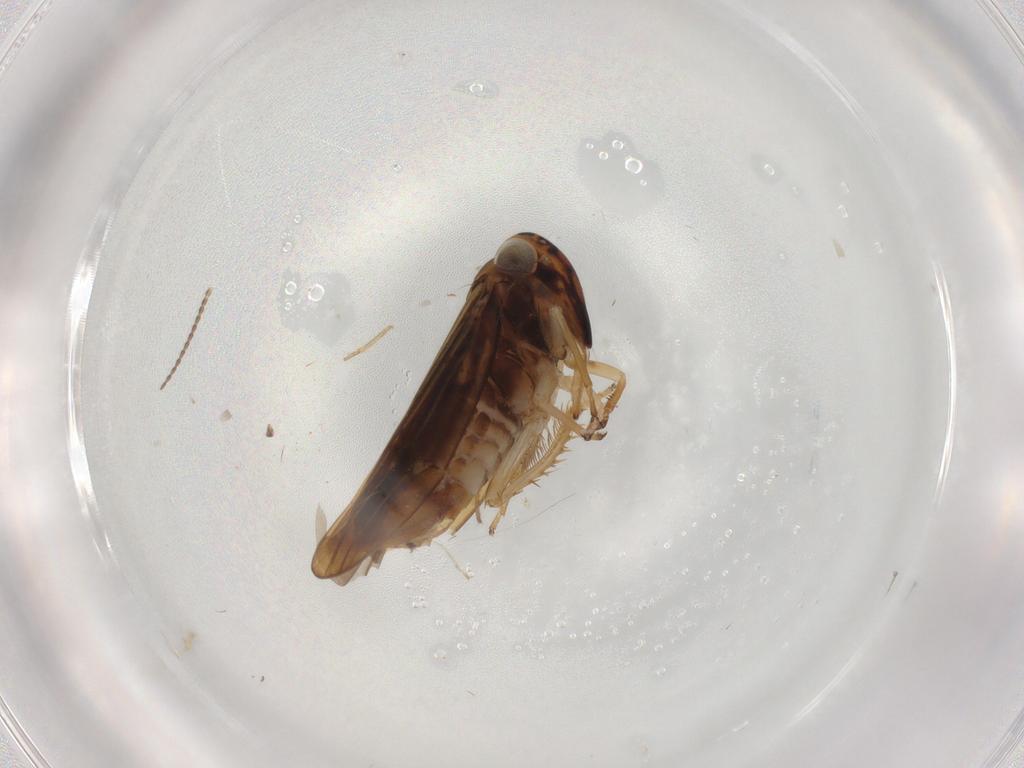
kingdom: Animalia
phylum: Arthropoda
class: Insecta
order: Hemiptera
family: Cicadellidae
